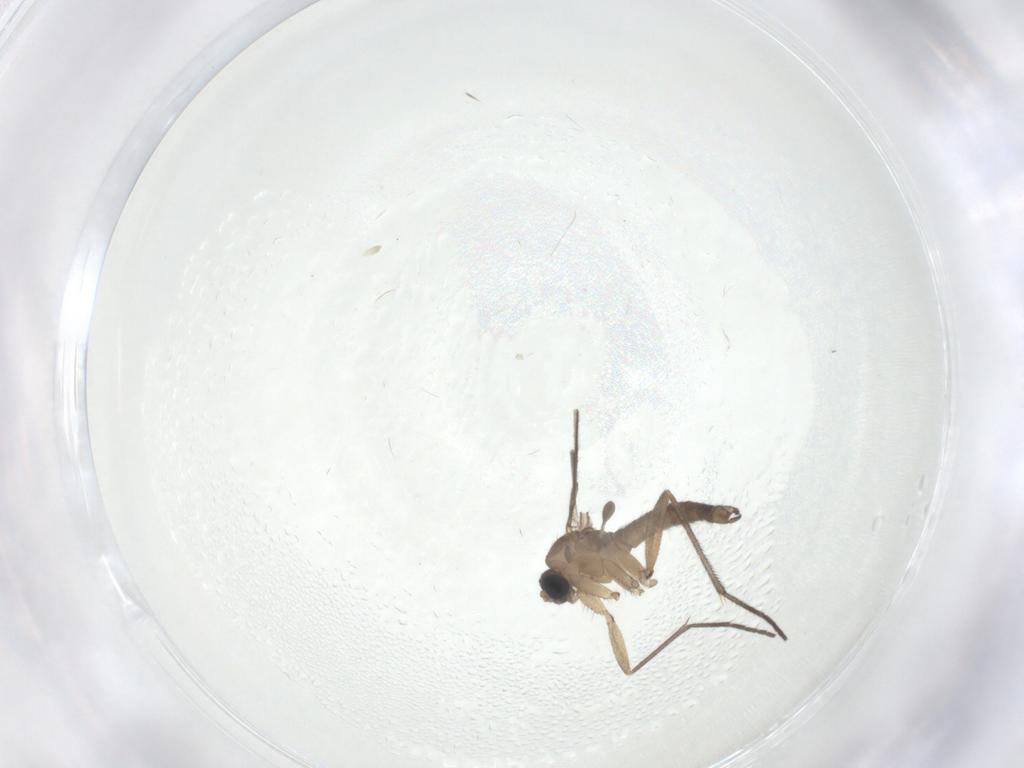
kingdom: Animalia
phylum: Arthropoda
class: Insecta
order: Diptera
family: Sciaridae
